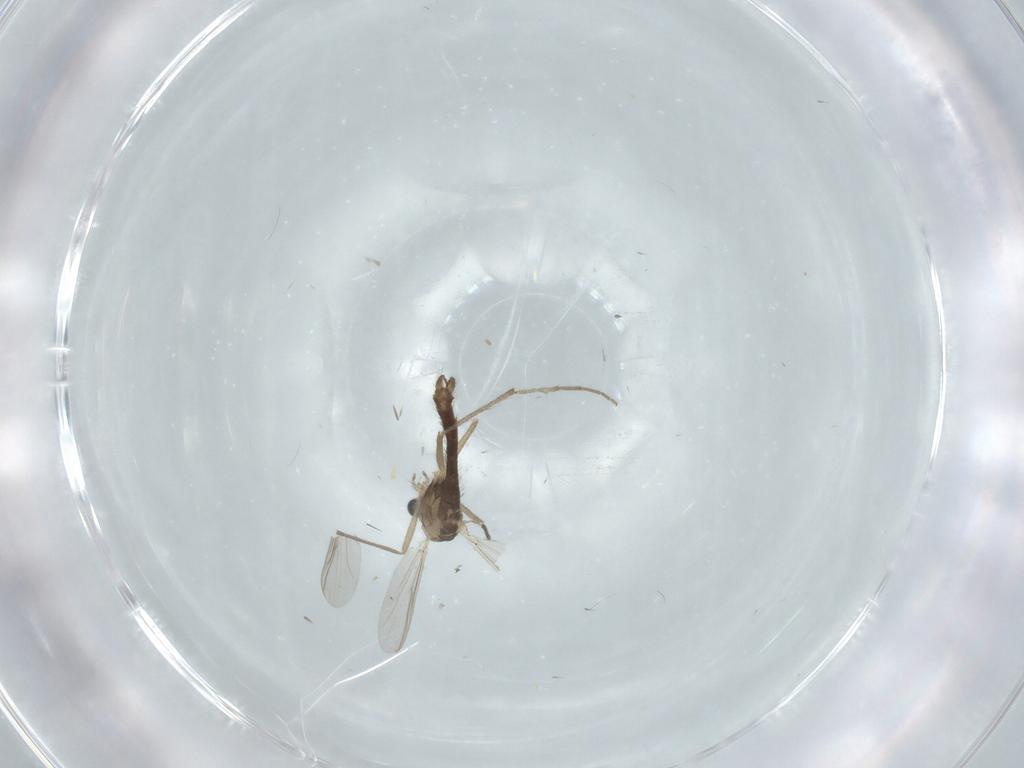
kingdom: Animalia
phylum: Arthropoda
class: Insecta
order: Diptera
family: Chironomidae
